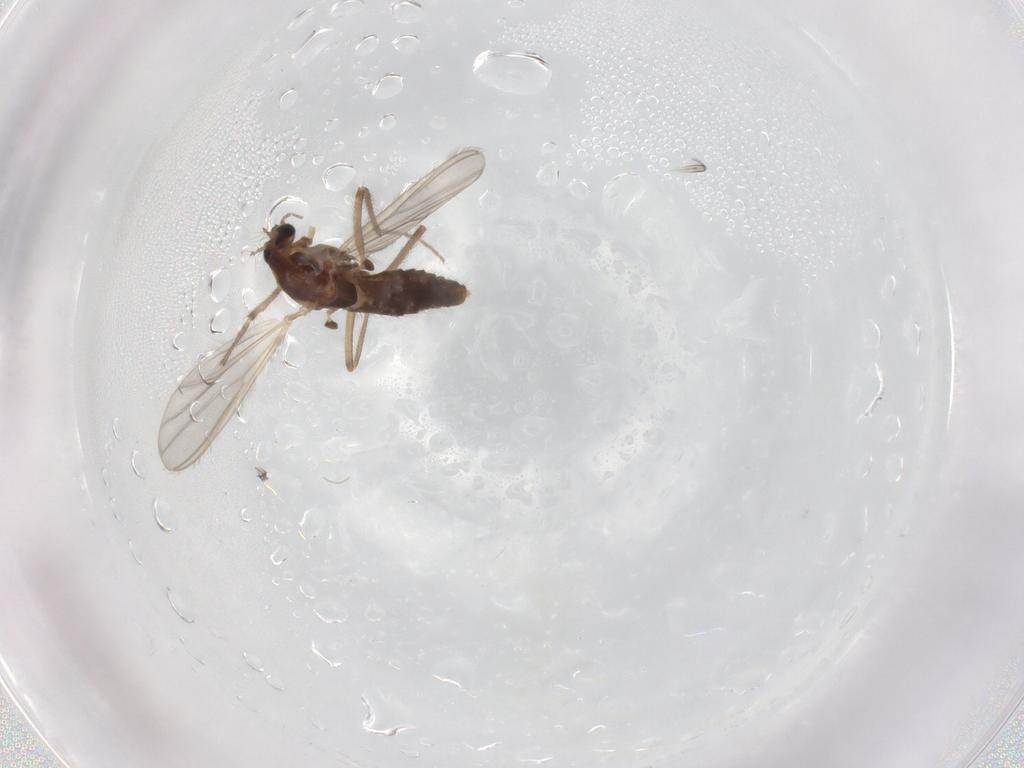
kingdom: Animalia
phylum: Arthropoda
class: Insecta
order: Diptera
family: Chironomidae
